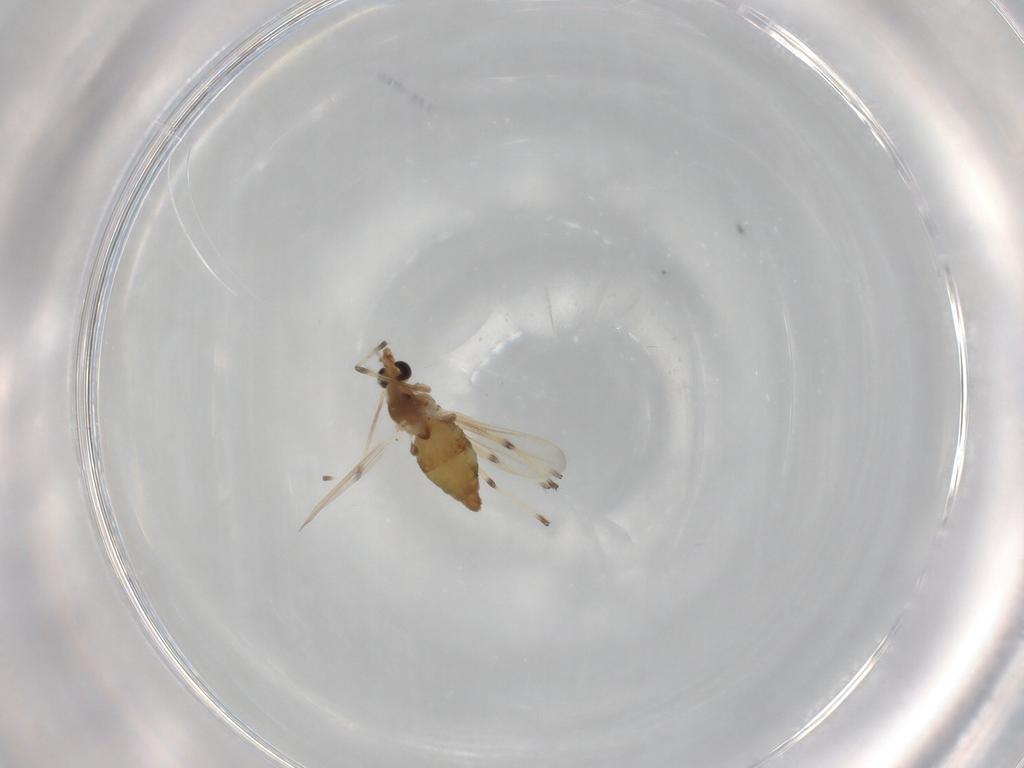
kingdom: Animalia
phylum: Arthropoda
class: Insecta
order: Diptera
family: Chironomidae
